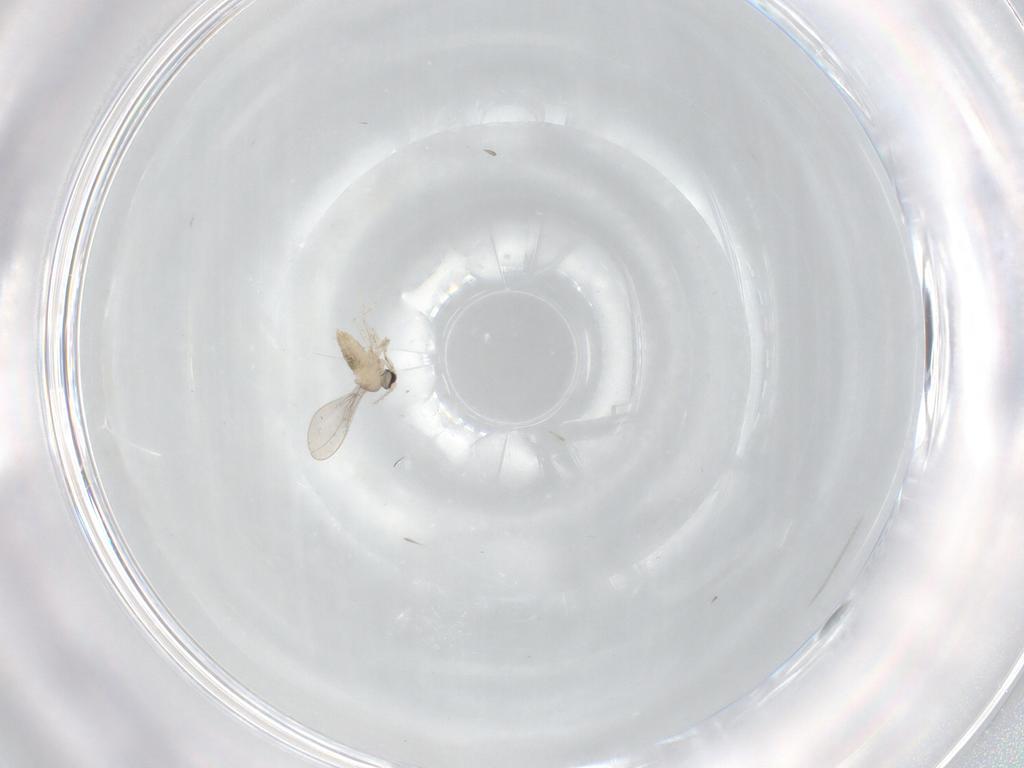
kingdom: Animalia
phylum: Arthropoda
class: Insecta
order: Diptera
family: Cecidomyiidae
